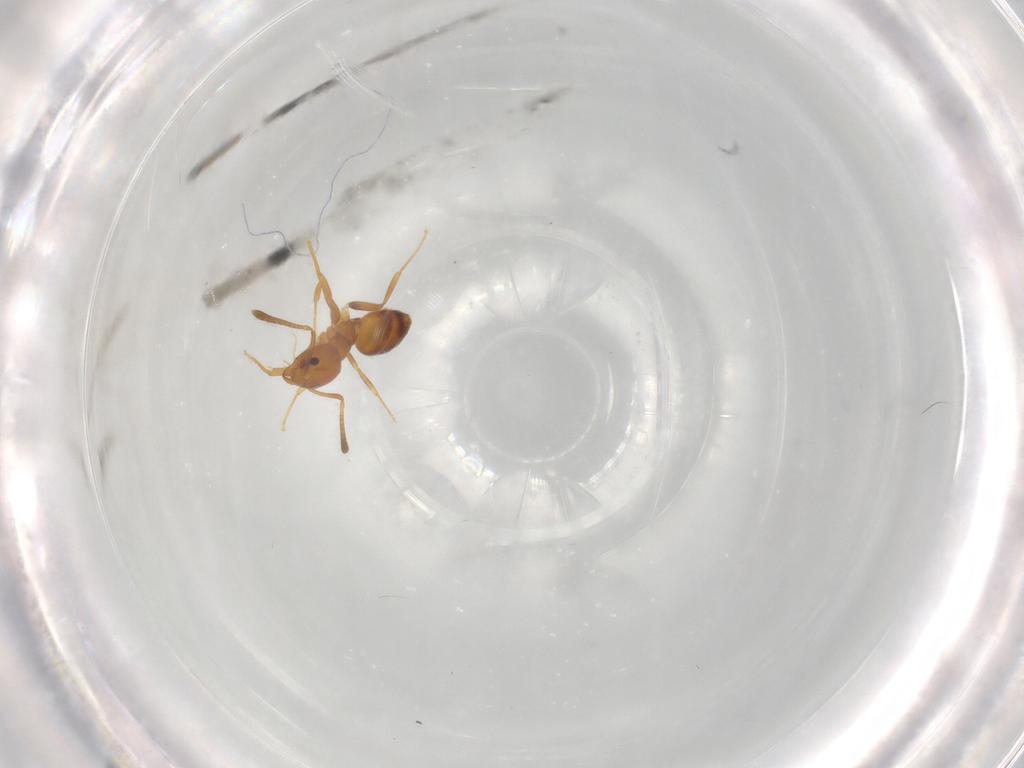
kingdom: Animalia
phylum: Arthropoda
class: Insecta
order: Hymenoptera
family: Formicidae
